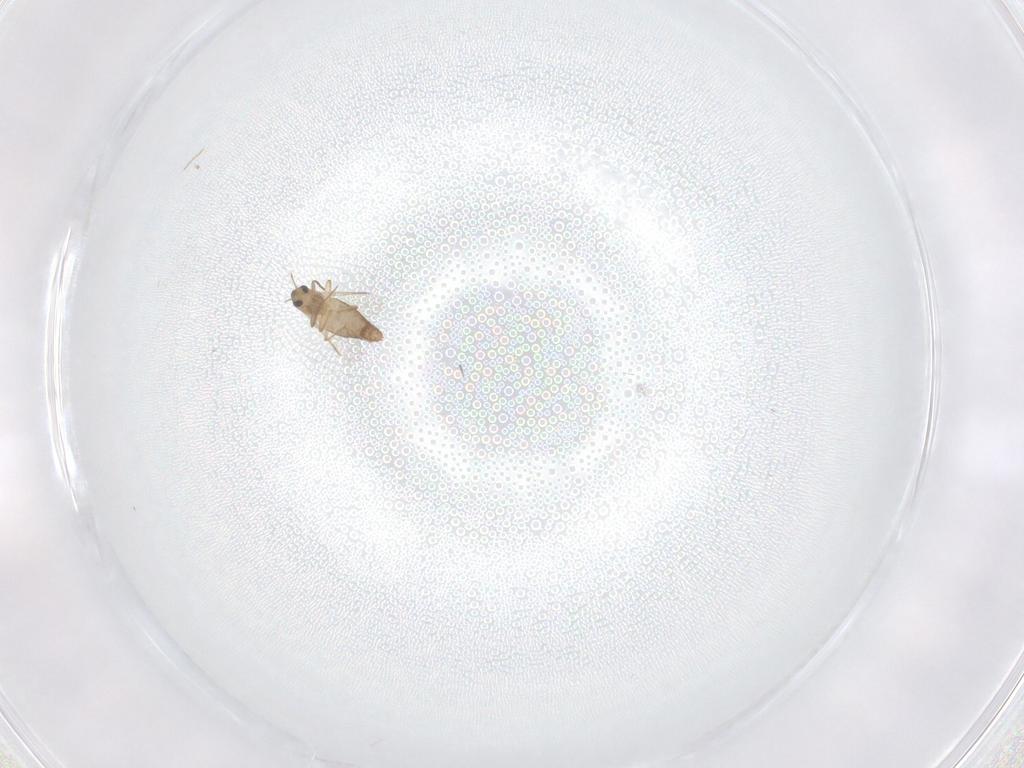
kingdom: Animalia
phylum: Arthropoda
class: Insecta
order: Diptera
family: Chironomidae
